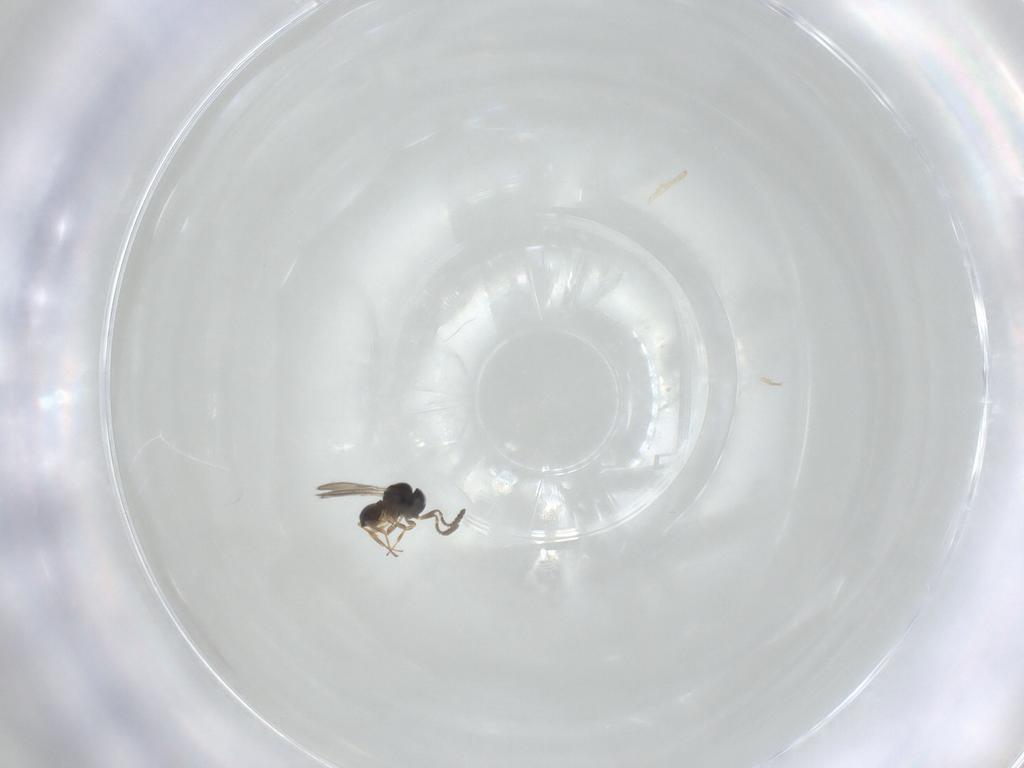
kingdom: Animalia
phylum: Arthropoda
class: Insecta
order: Hymenoptera
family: Scelionidae
